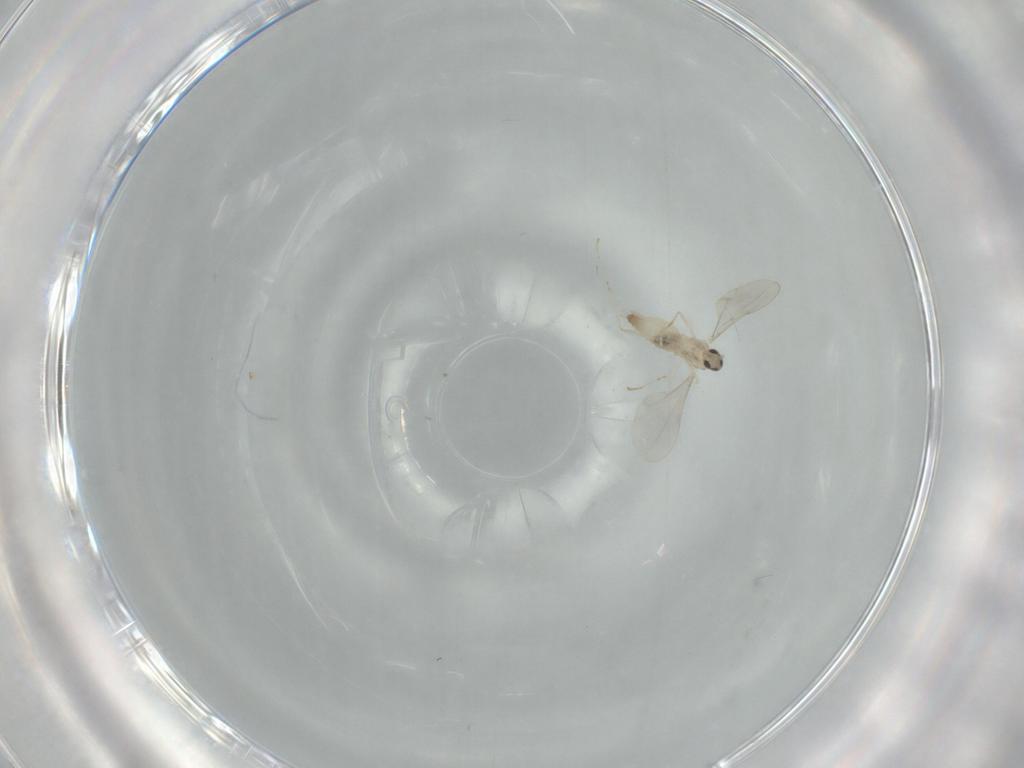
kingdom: Animalia
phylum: Arthropoda
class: Insecta
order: Diptera
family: Cecidomyiidae
